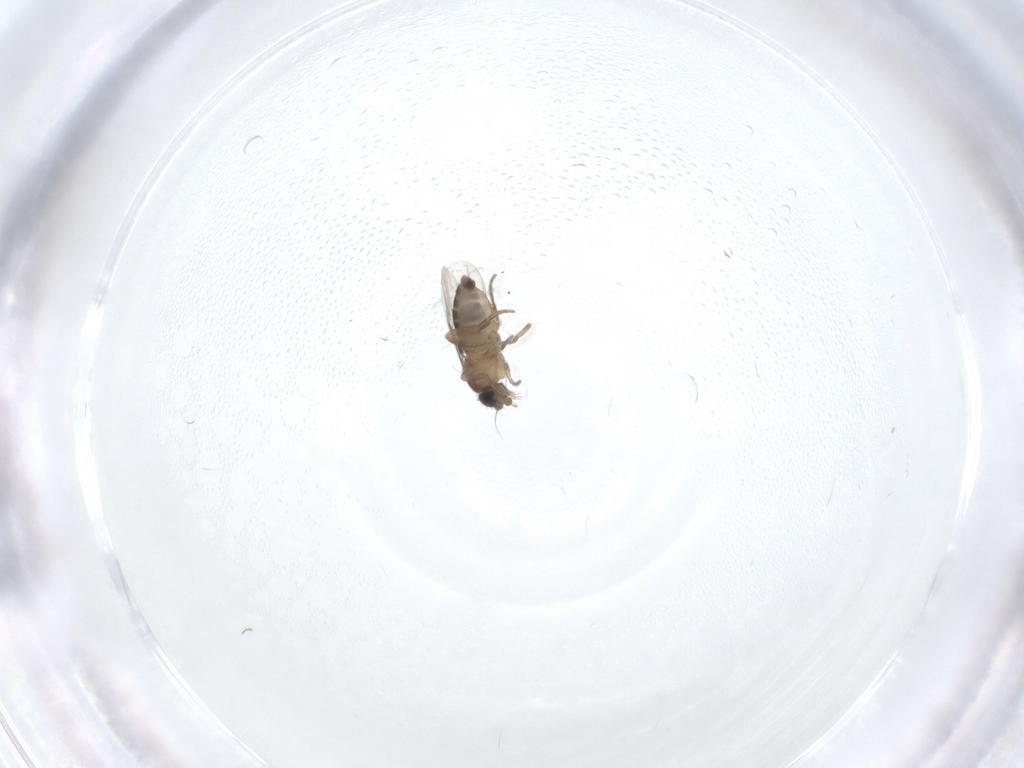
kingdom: Animalia
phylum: Arthropoda
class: Insecta
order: Diptera
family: Phoridae
